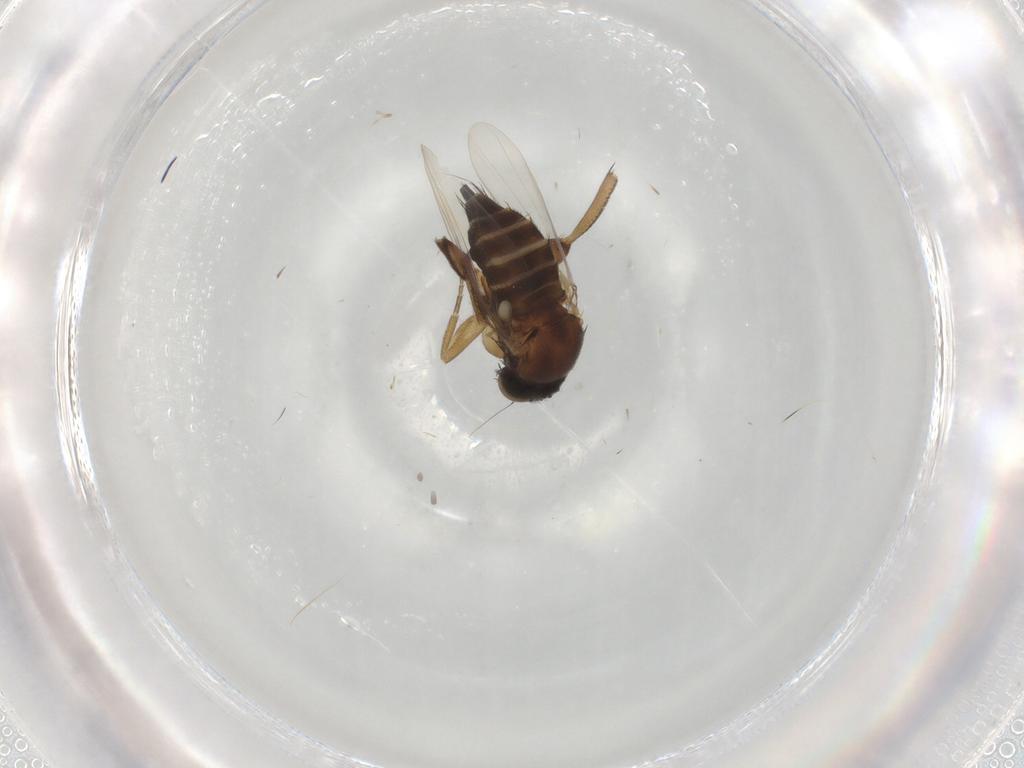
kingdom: Animalia
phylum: Arthropoda
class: Insecta
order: Diptera
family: Phoridae
